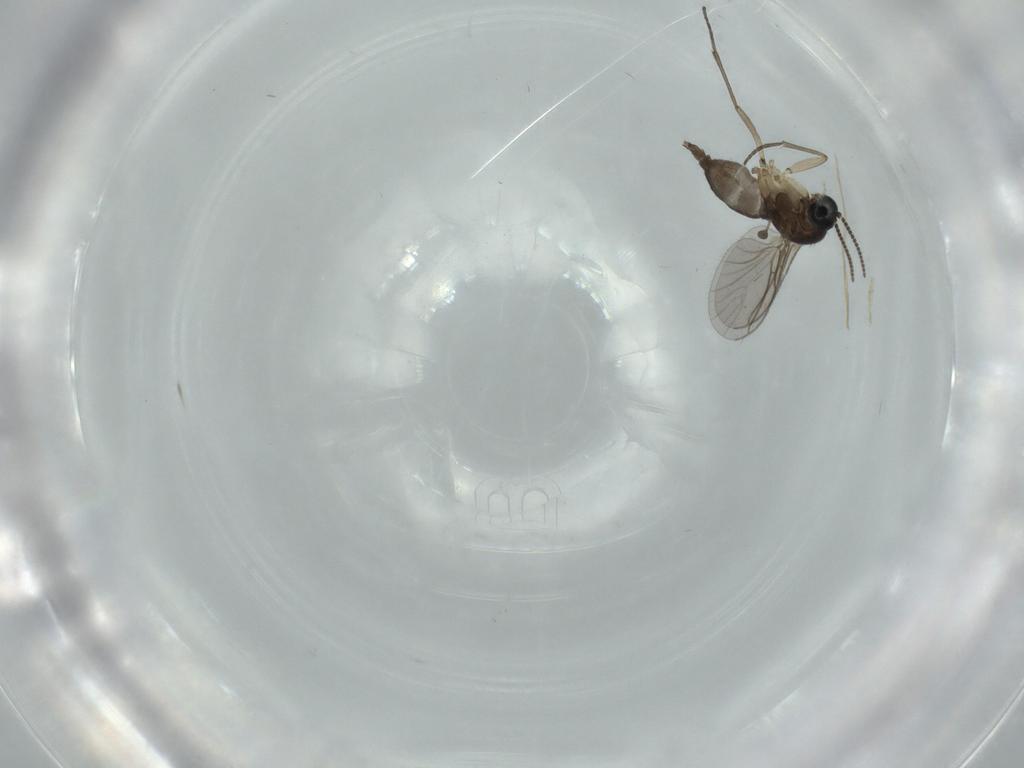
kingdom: Animalia
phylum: Arthropoda
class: Insecta
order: Diptera
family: Sciaridae
